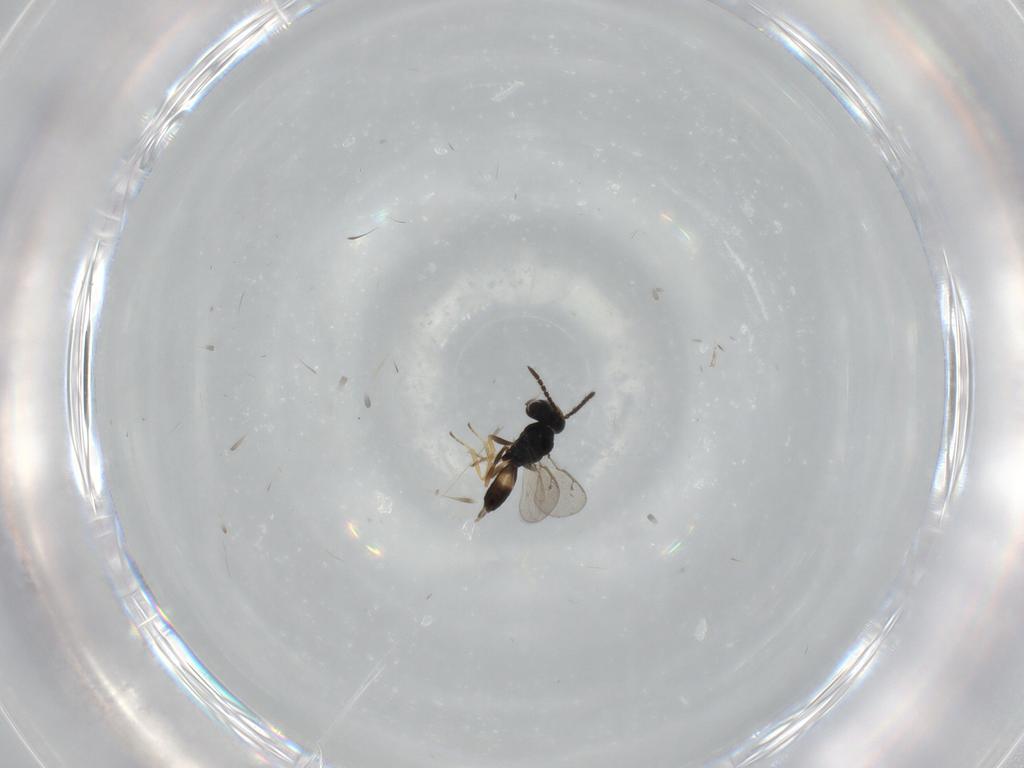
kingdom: Animalia
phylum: Arthropoda
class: Insecta
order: Hymenoptera
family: Pteromalidae
